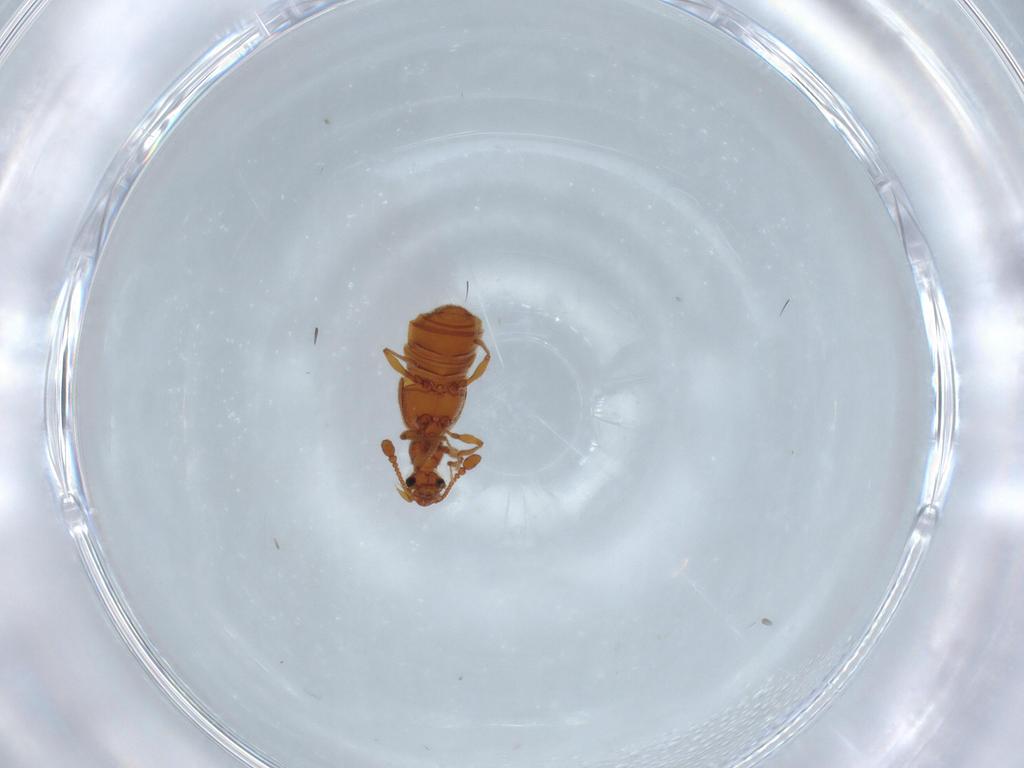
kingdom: Animalia
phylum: Arthropoda
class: Insecta
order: Coleoptera
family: Staphylinidae
